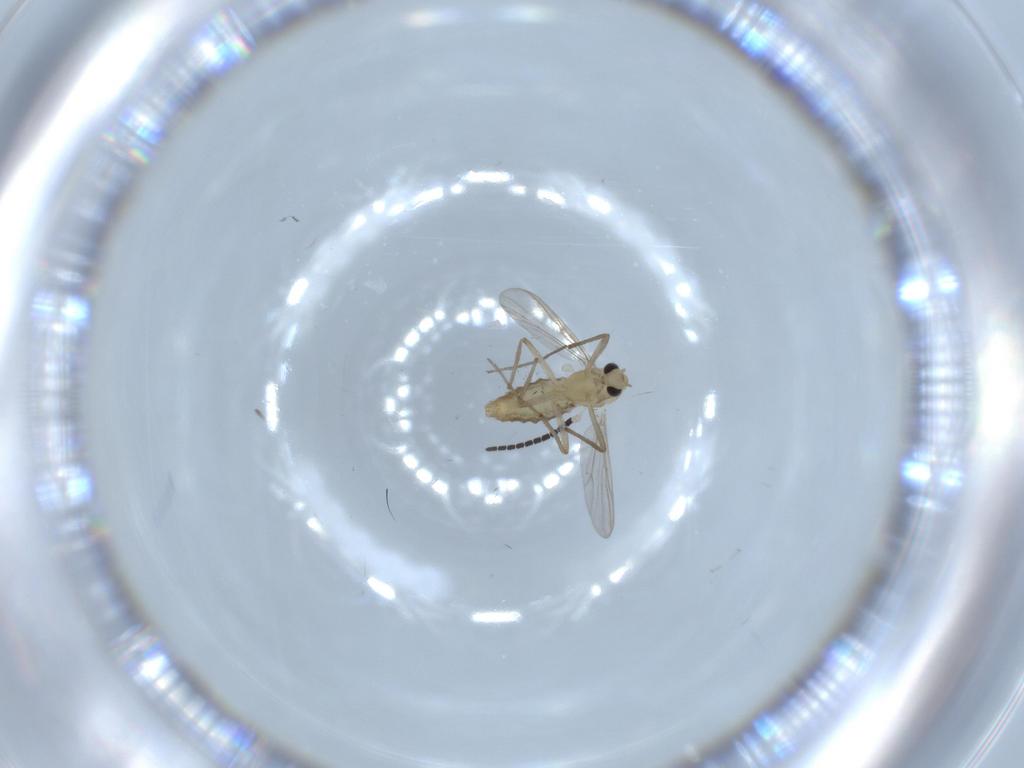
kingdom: Animalia
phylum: Arthropoda
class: Insecta
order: Diptera
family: Chironomidae
